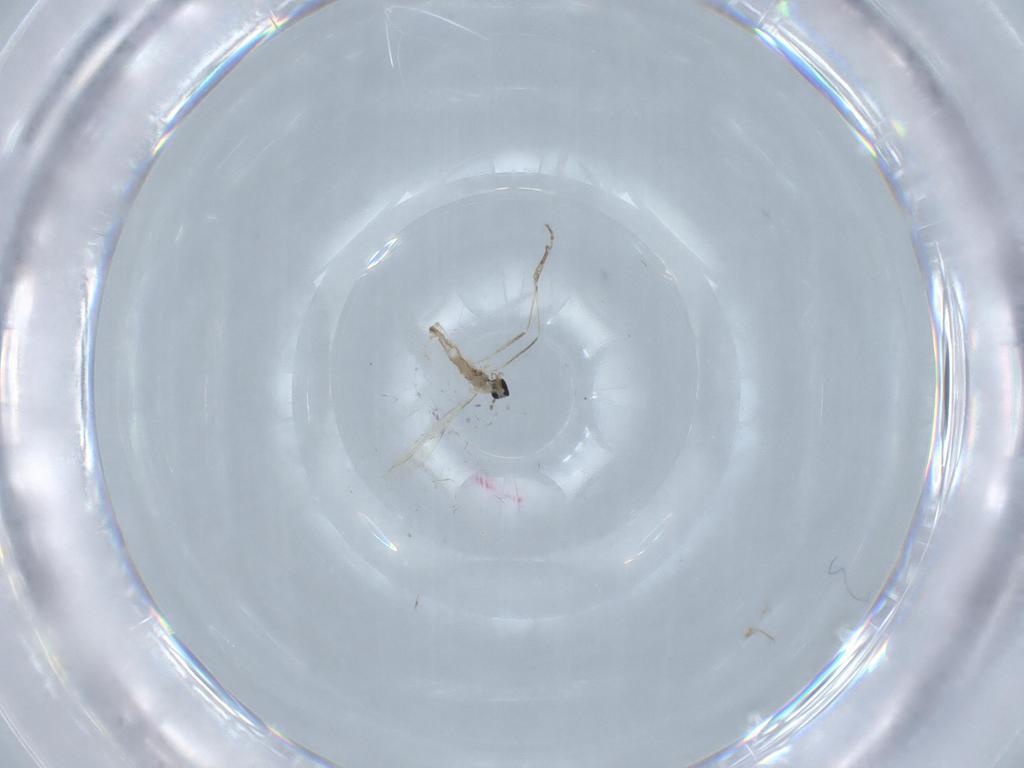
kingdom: Animalia
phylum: Arthropoda
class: Insecta
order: Diptera
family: Cecidomyiidae
